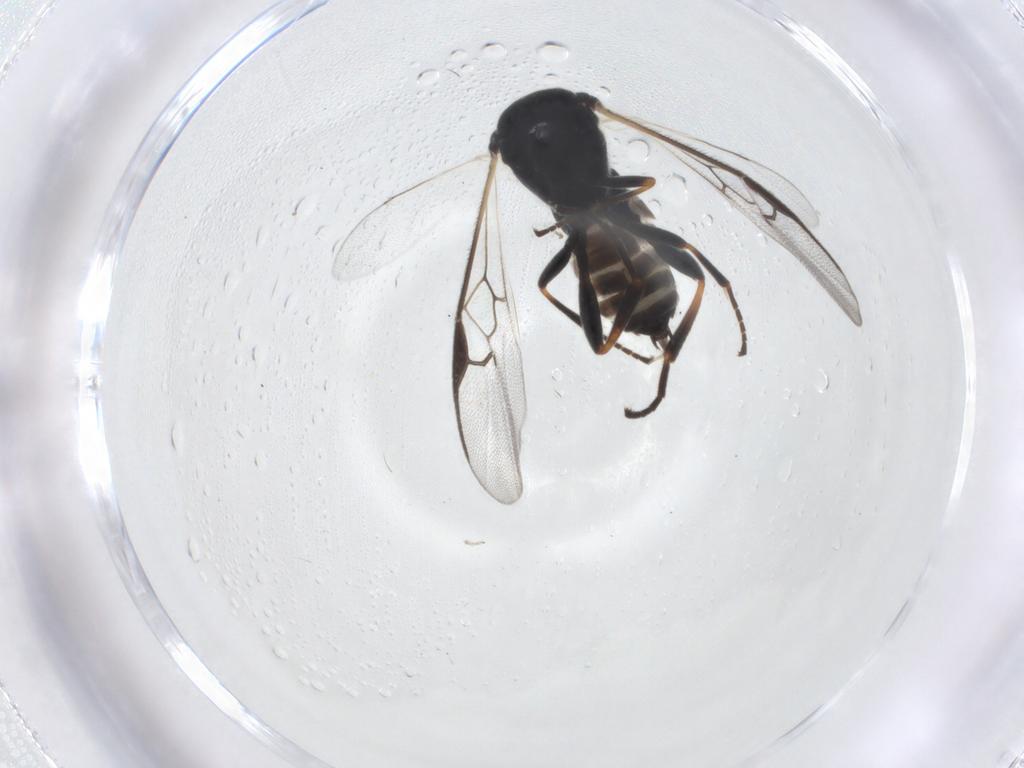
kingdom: Animalia
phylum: Arthropoda
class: Insecta
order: Hymenoptera
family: Braconidae
